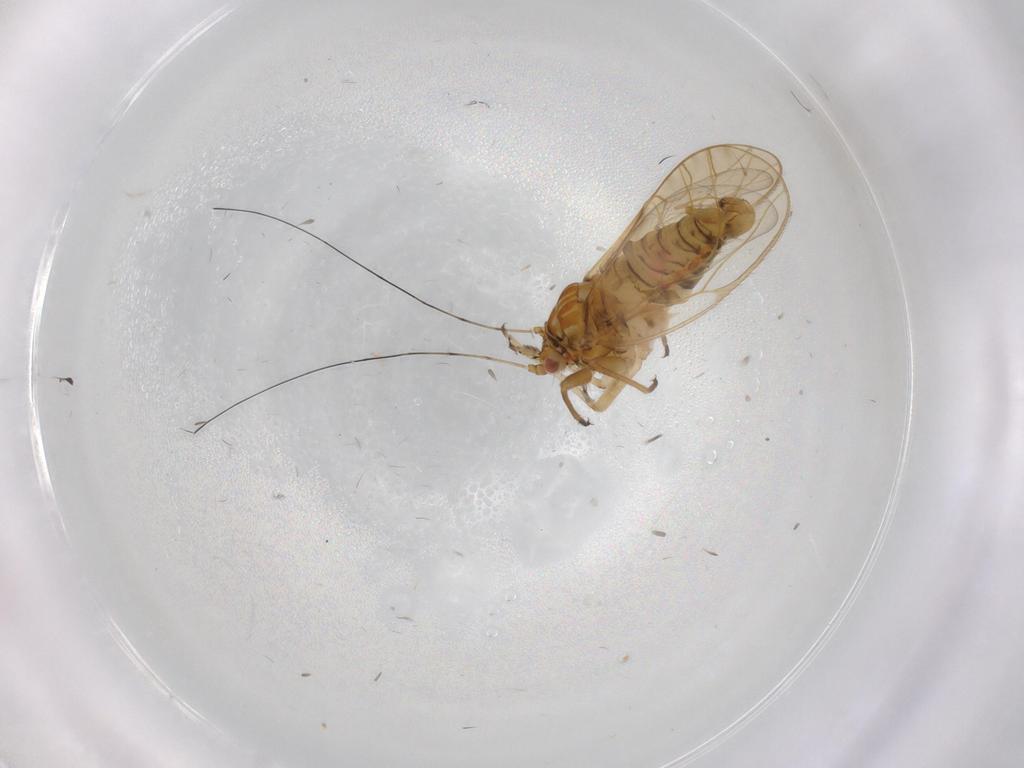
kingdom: Animalia
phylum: Arthropoda
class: Insecta
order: Hemiptera
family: Psyllidae
